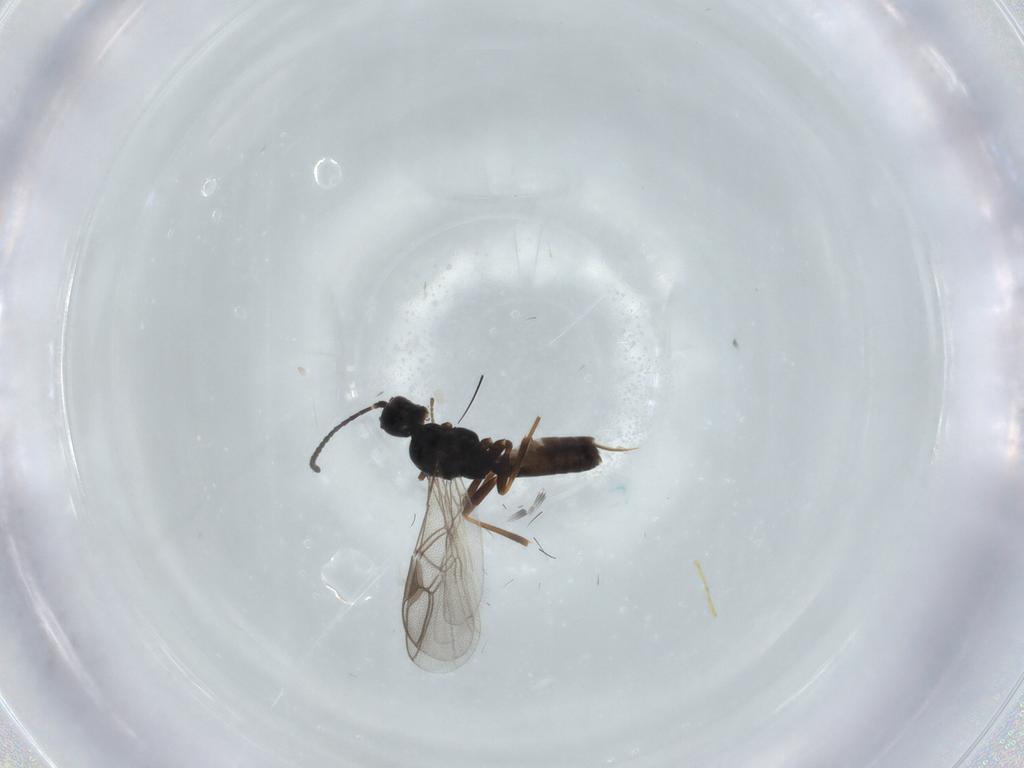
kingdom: Animalia
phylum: Arthropoda
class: Insecta
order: Hymenoptera
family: Braconidae
